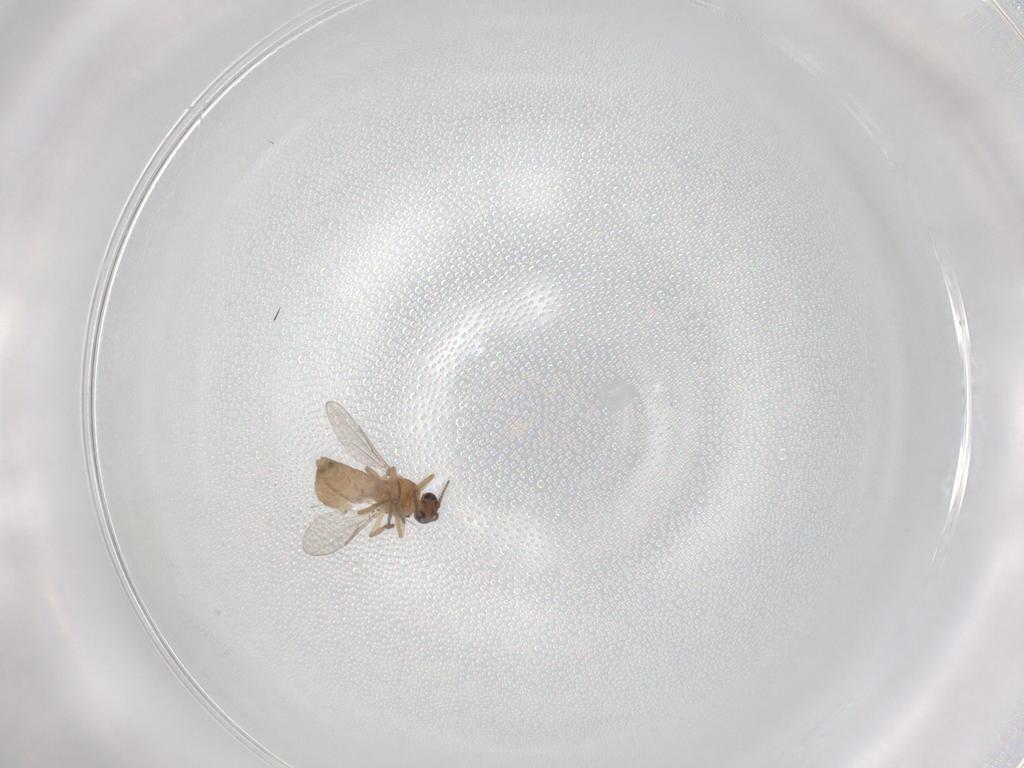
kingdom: Animalia
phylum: Arthropoda
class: Insecta
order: Diptera
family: Ceratopogonidae
